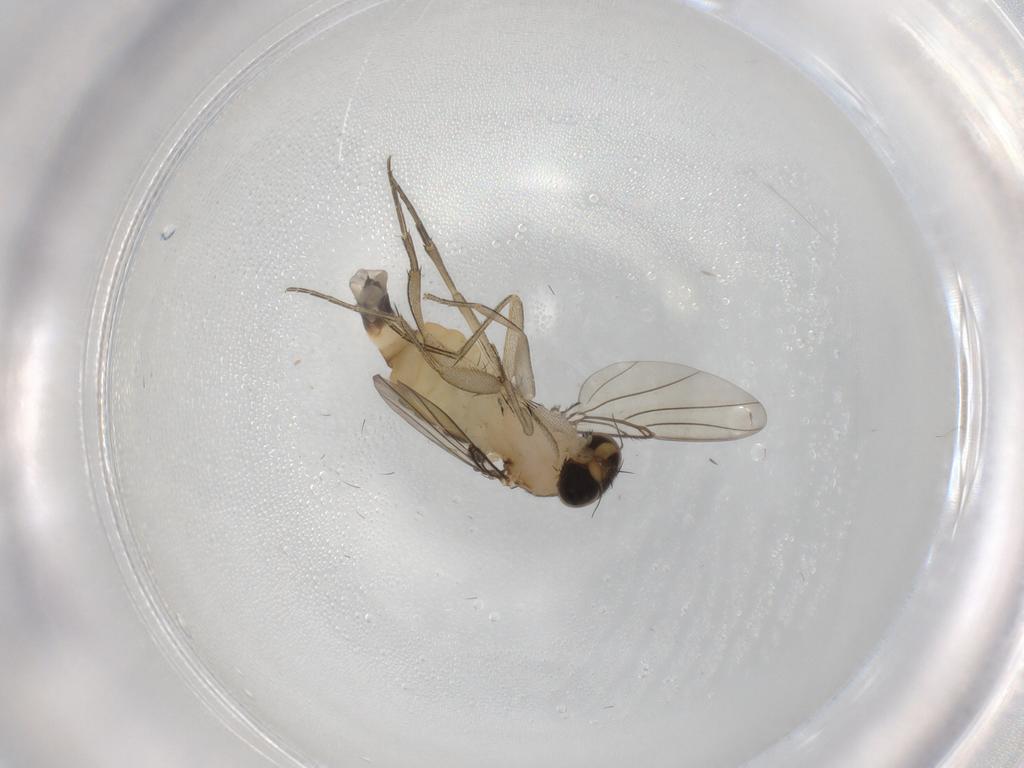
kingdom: Animalia
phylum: Arthropoda
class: Insecta
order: Diptera
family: Phoridae
